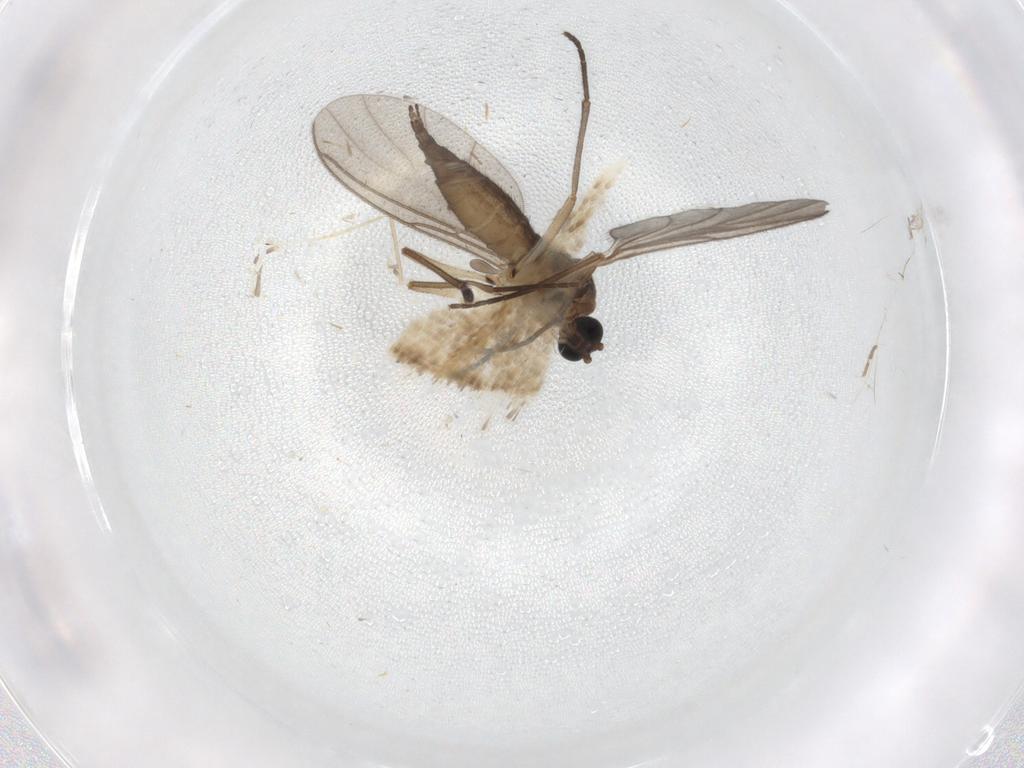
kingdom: Animalia
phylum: Arthropoda
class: Insecta
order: Diptera
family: Sciaridae
